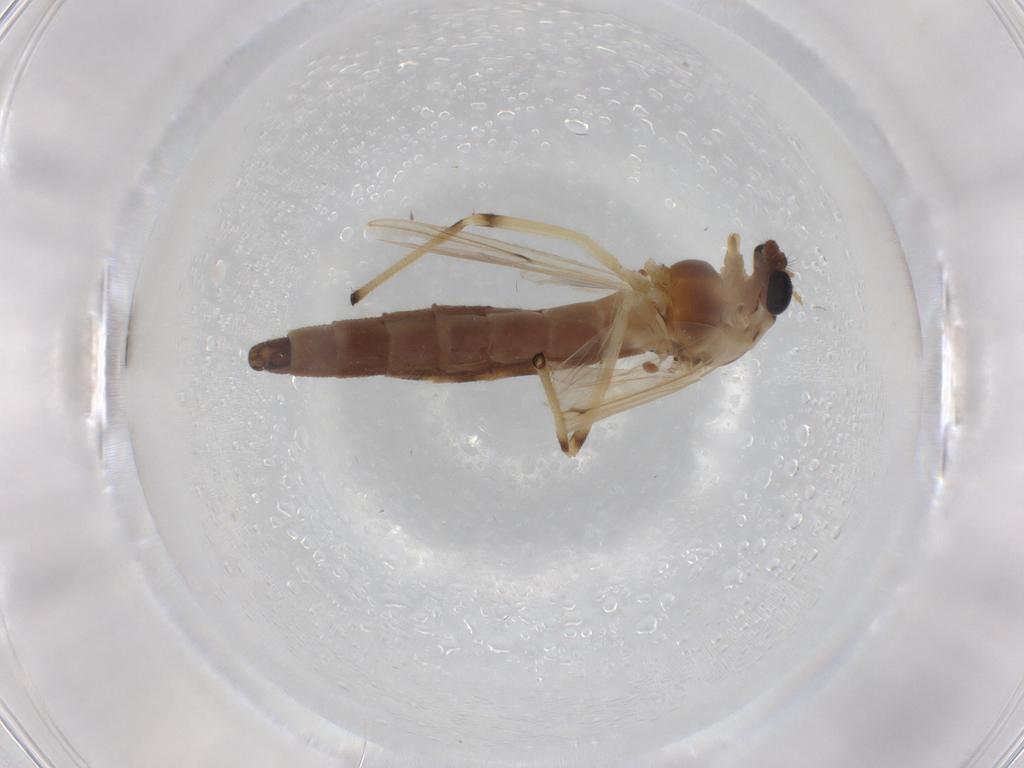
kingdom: Animalia
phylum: Arthropoda
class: Insecta
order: Diptera
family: Chironomidae
